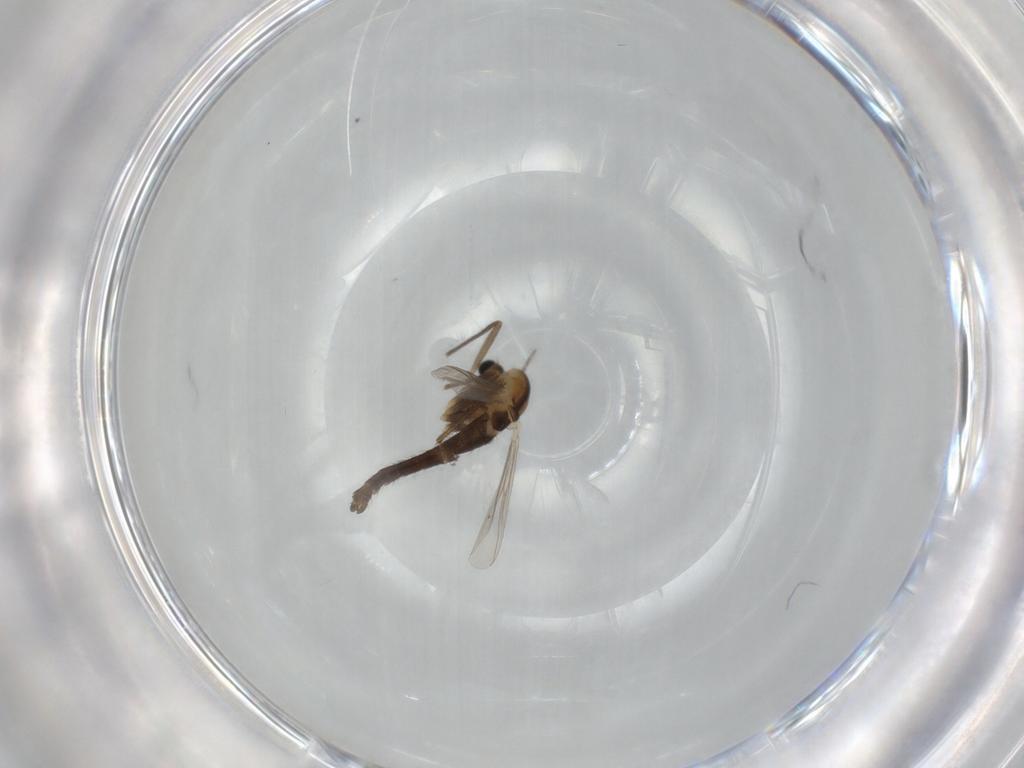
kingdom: Animalia
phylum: Arthropoda
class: Insecta
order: Diptera
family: Chironomidae
